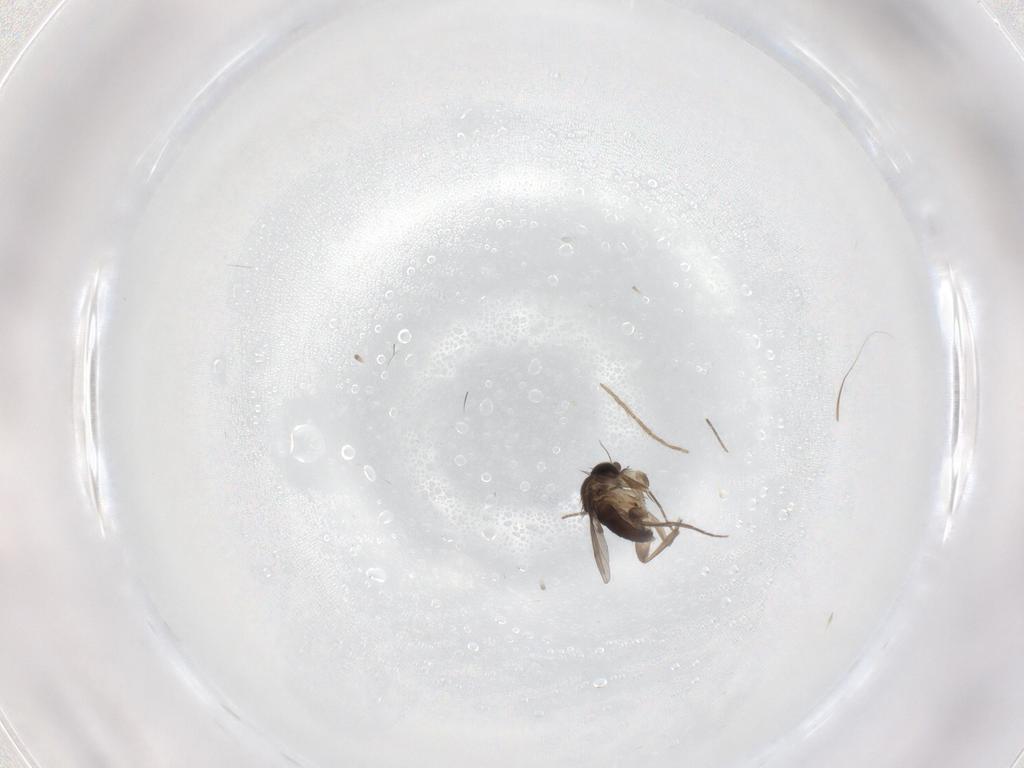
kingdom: Animalia
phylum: Arthropoda
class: Insecta
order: Diptera
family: Phoridae
